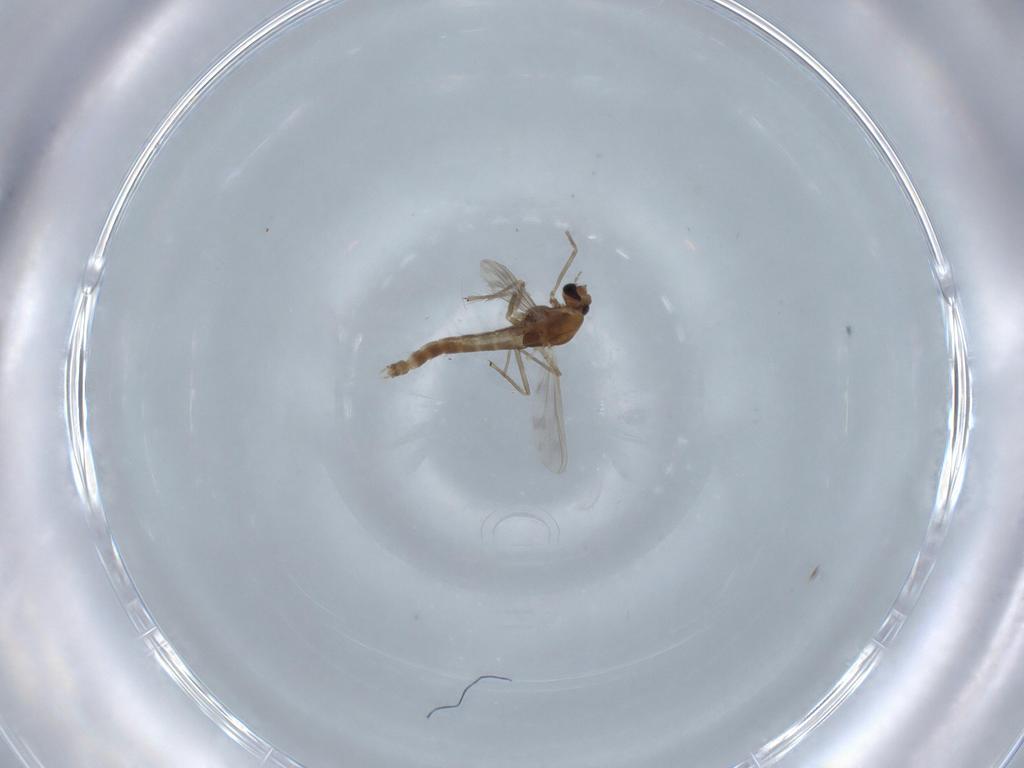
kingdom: Animalia
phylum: Arthropoda
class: Insecta
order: Diptera
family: Chironomidae
